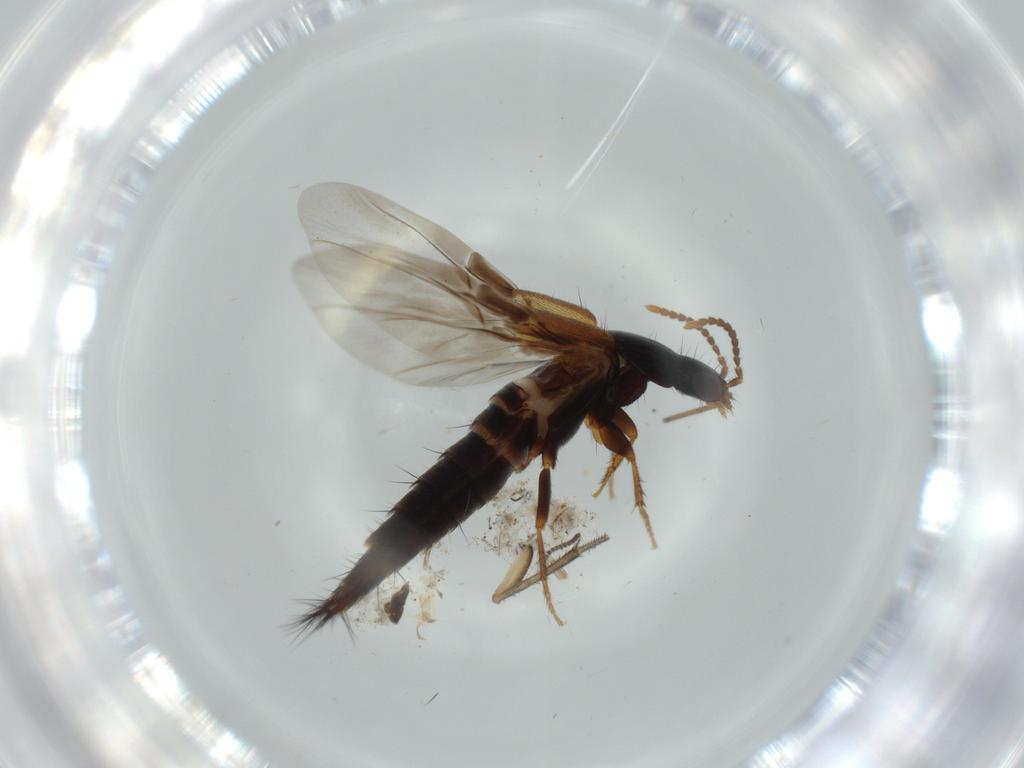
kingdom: Animalia
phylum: Arthropoda
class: Insecta
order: Coleoptera
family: Staphylinidae
